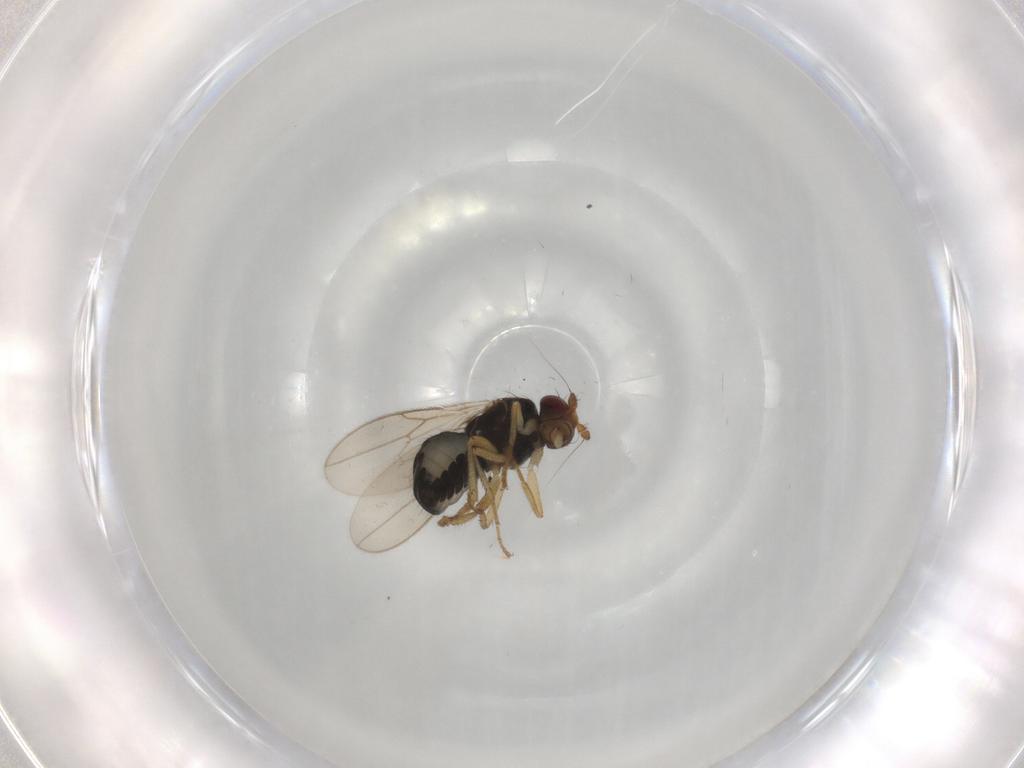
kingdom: Animalia
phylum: Arthropoda
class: Insecta
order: Diptera
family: Sphaeroceridae
